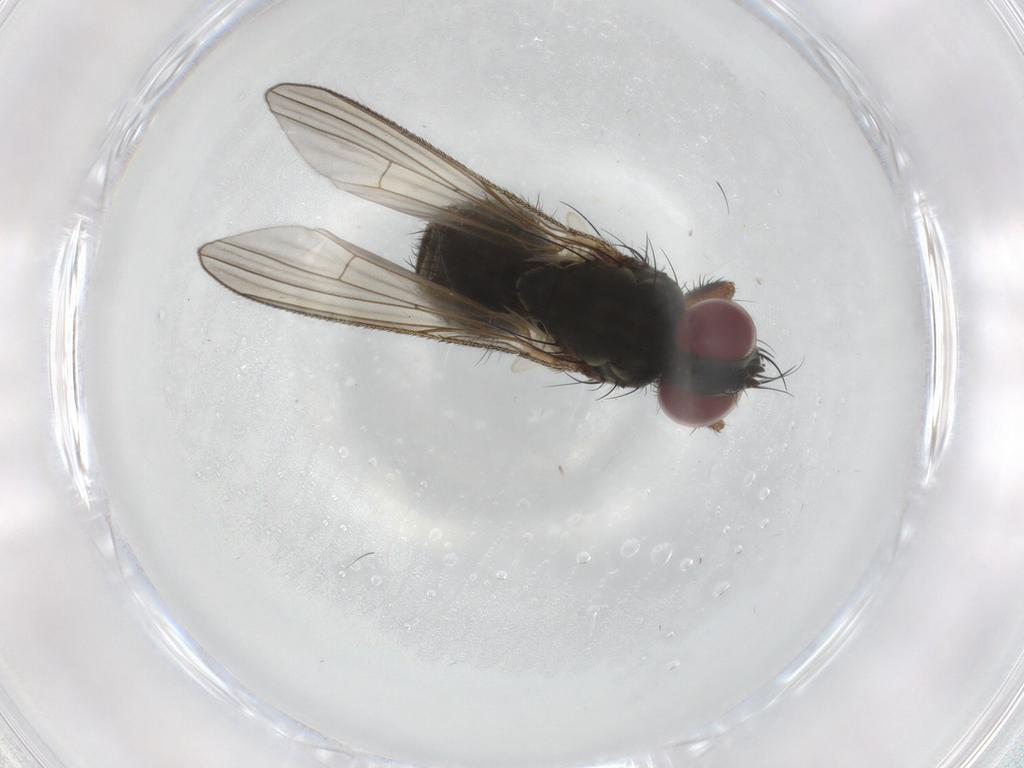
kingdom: Animalia
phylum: Arthropoda
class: Insecta
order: Diptera
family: Muscidae
